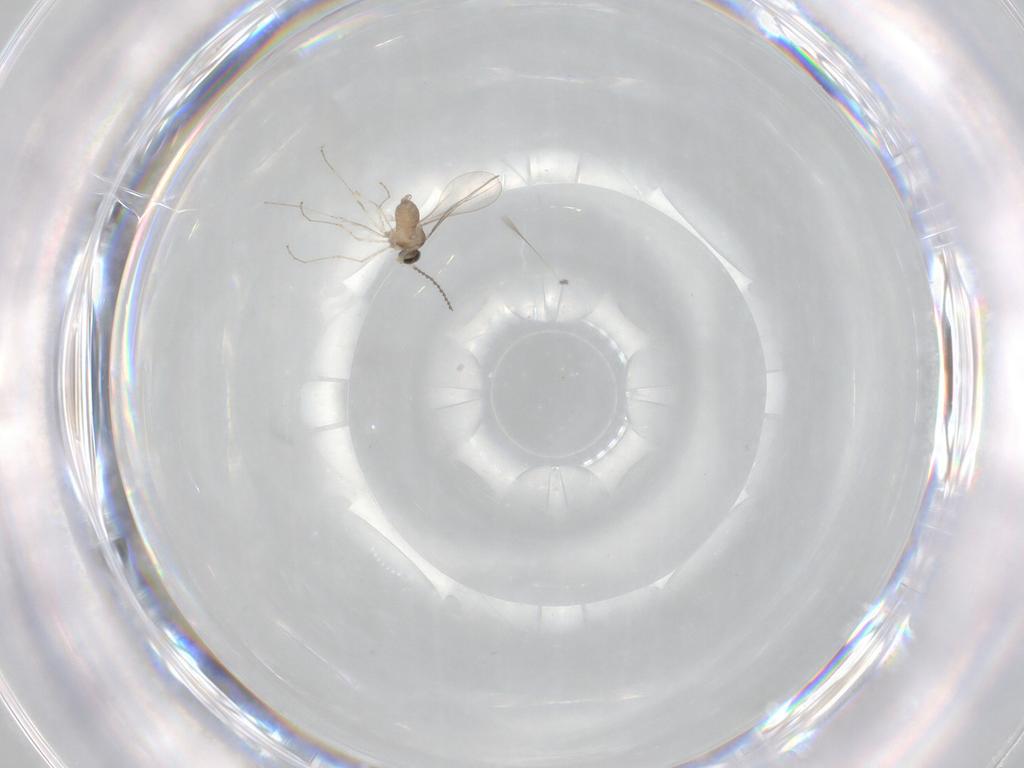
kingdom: Animalia
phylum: Arthropoda
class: Insecta
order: Diptera
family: Cecidomyiidae
